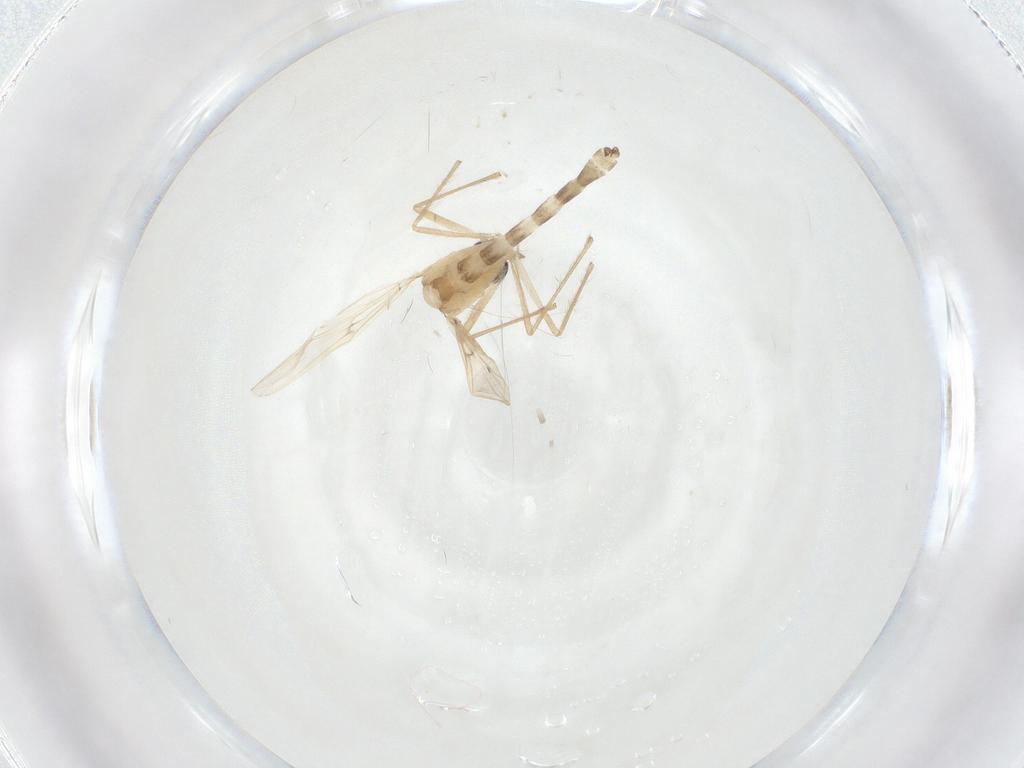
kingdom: Animalia
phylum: Arthropoda
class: Insecta
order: Diptera
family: Chironomidae
